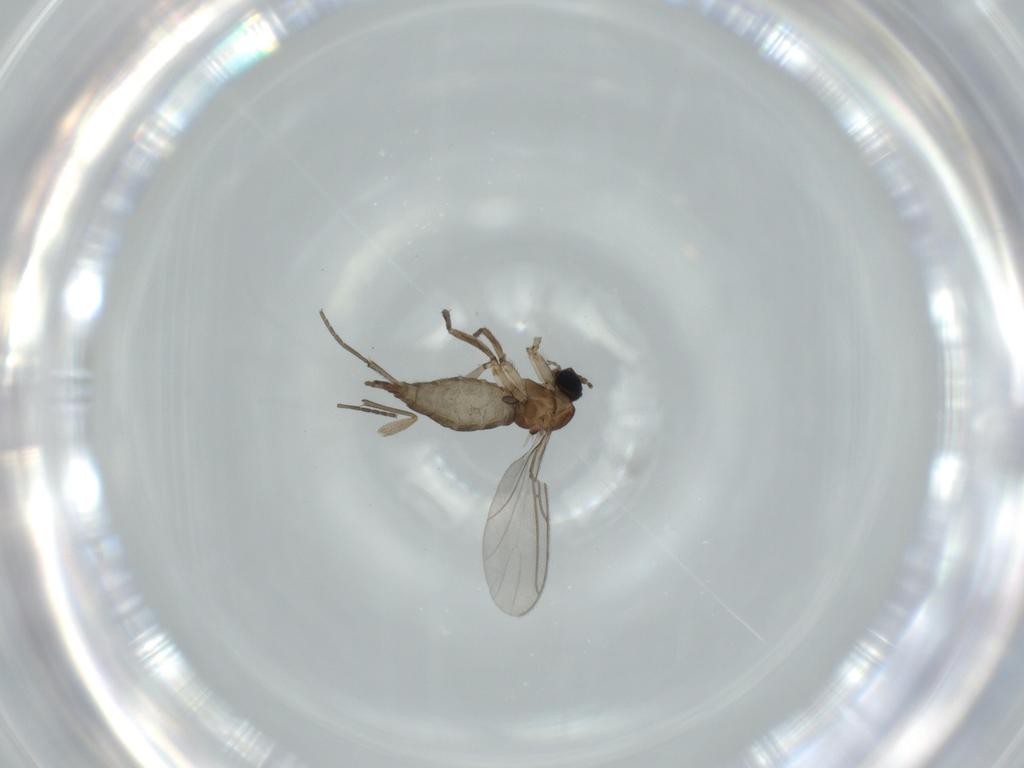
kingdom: Animalia
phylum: Arthropoda
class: Insecta
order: Diptera
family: Sciaridae
